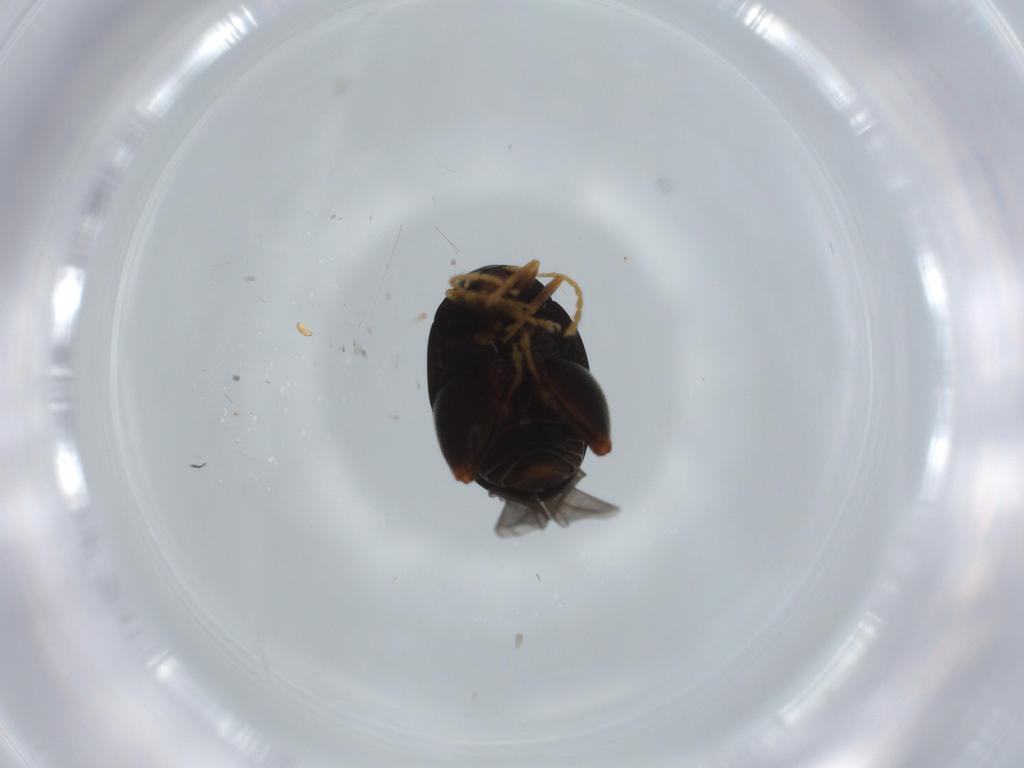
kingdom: Animalia
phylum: Arthropoda
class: Insecta
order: Coleoptera
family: Chrysomelidae
